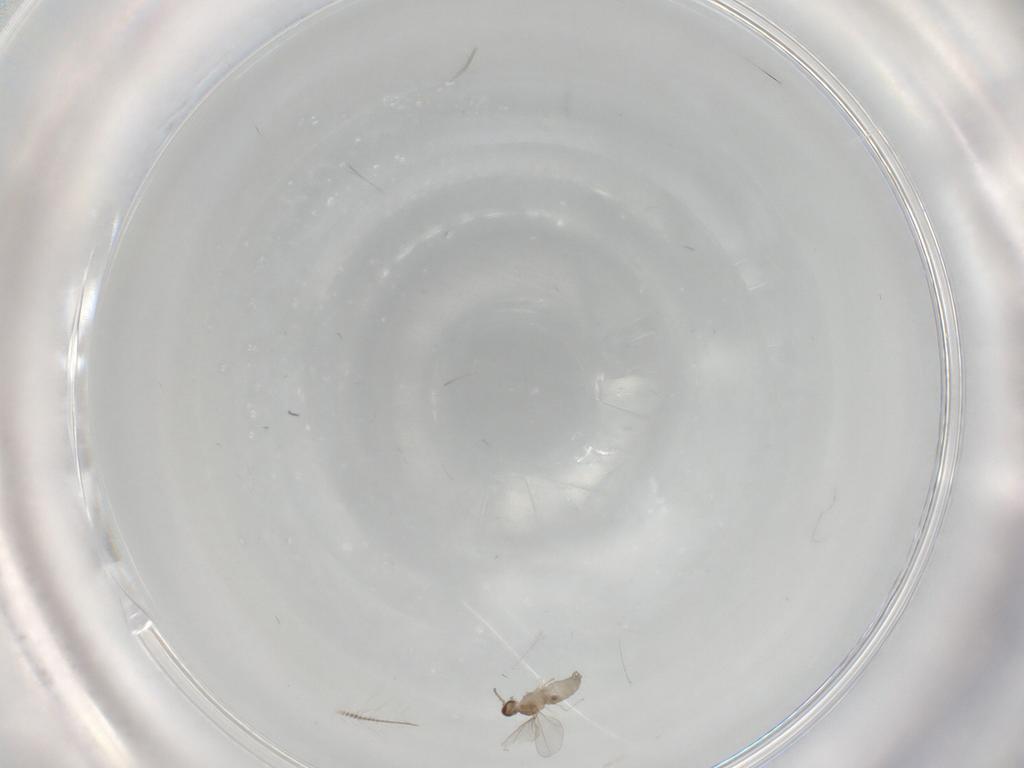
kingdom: Animalia
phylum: Arthropoda
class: Insecta
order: Diptera
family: Cecidomyiidae
